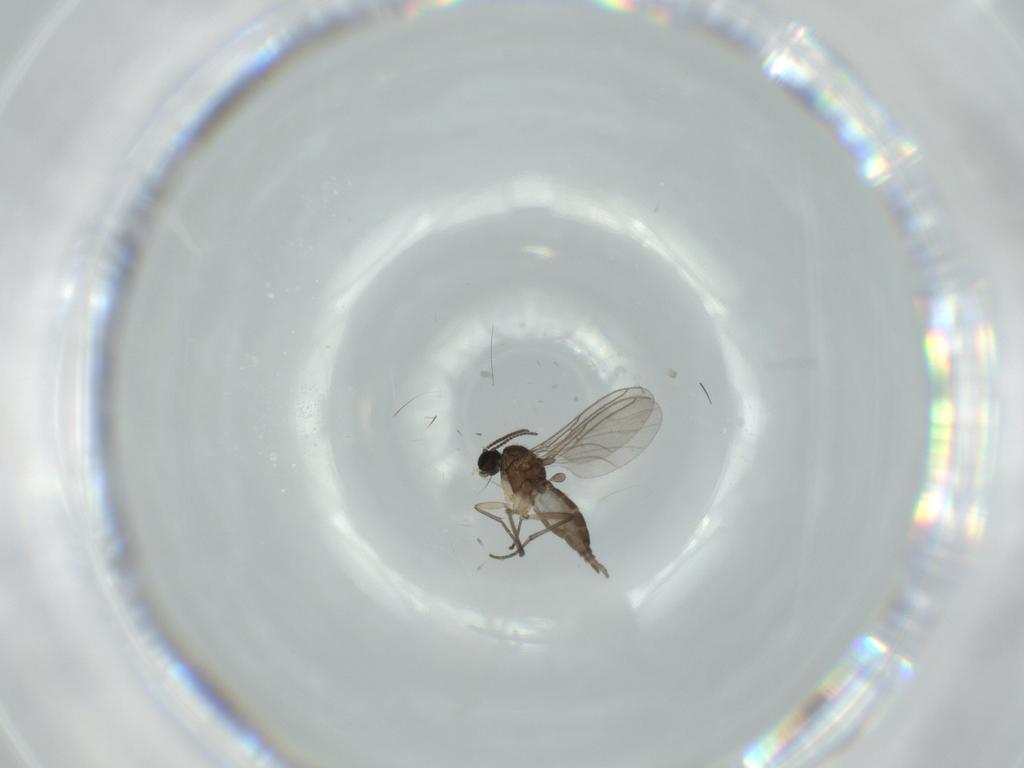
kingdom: Animalia
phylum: Arthropoda
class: Insecta
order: Diptera
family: Sciaridae
